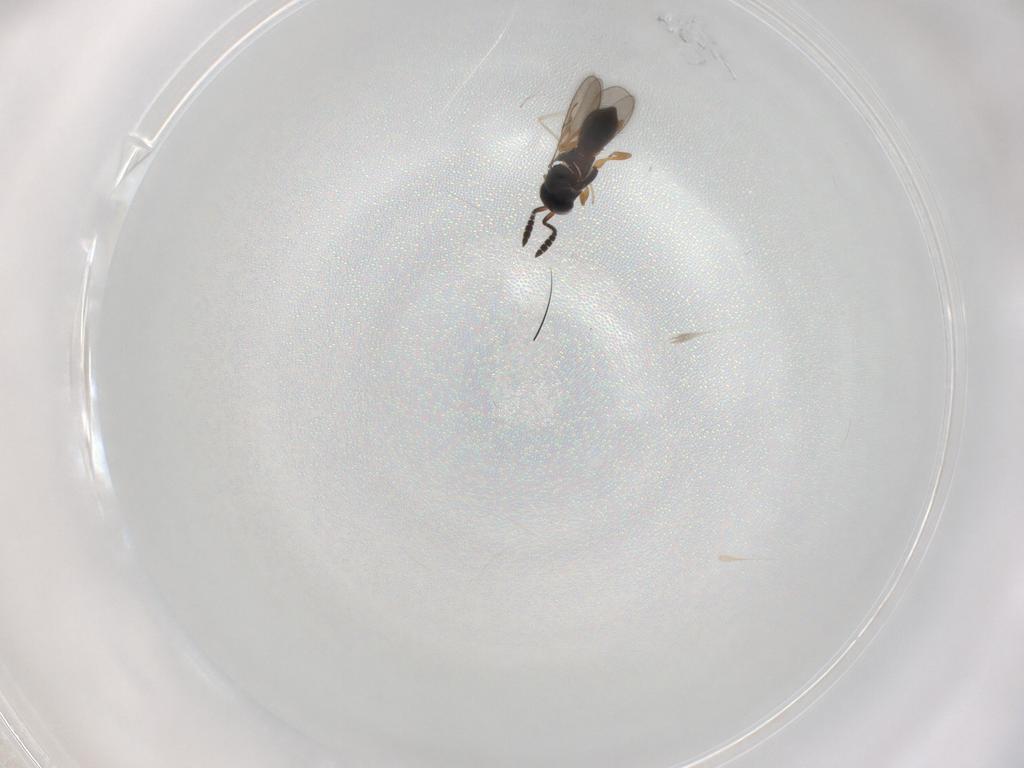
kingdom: Animalia
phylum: Arthropoda
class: Insecta
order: Hymenoptera
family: Scelionidae
